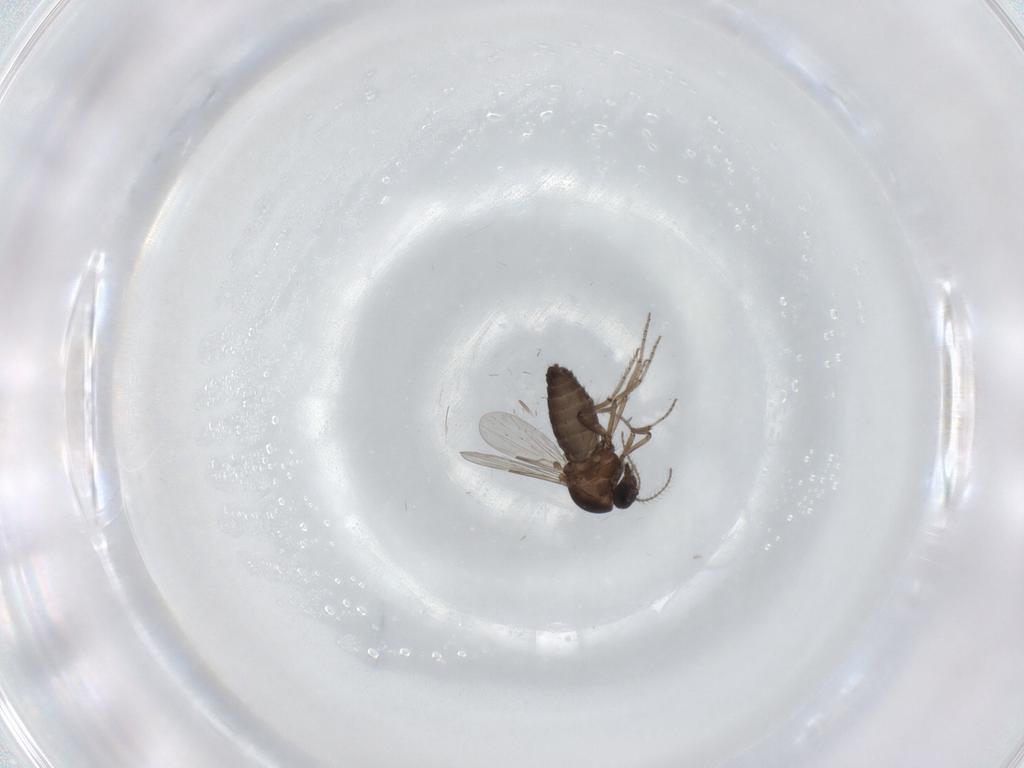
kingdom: Animalia
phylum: Arthropoda
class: Insecta
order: Diptera
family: Ceratopogonidae
